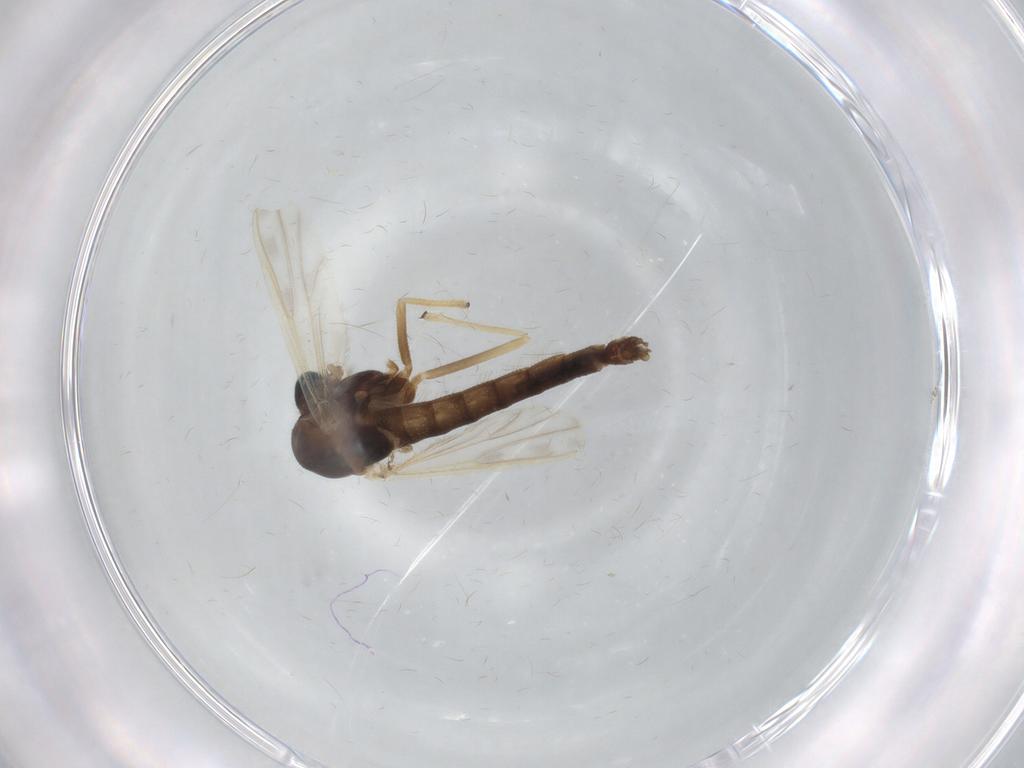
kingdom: Animalia
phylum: Arthropoda
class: Insecta
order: Diptera
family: Chironomidae
